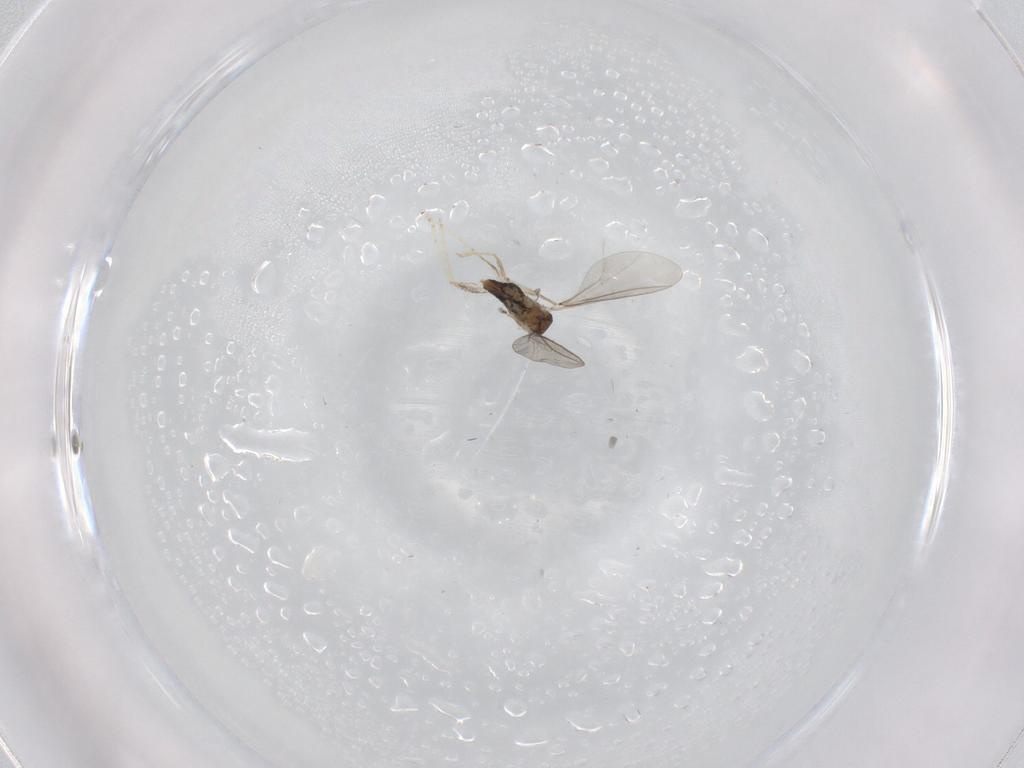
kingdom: Animalia
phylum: Arthropoda
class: Insecta
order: Diptera
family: Cecidomyiidae
